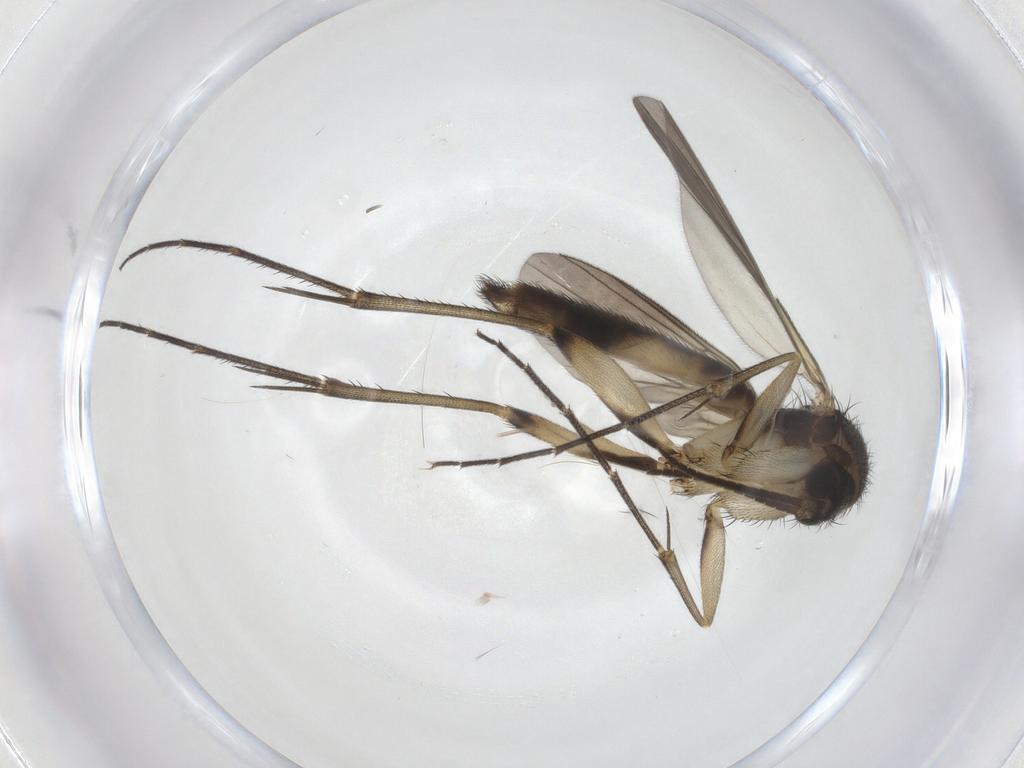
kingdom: Animalia
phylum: Arthropoda
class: Insecta
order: Diptera
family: Mycetophilidae
